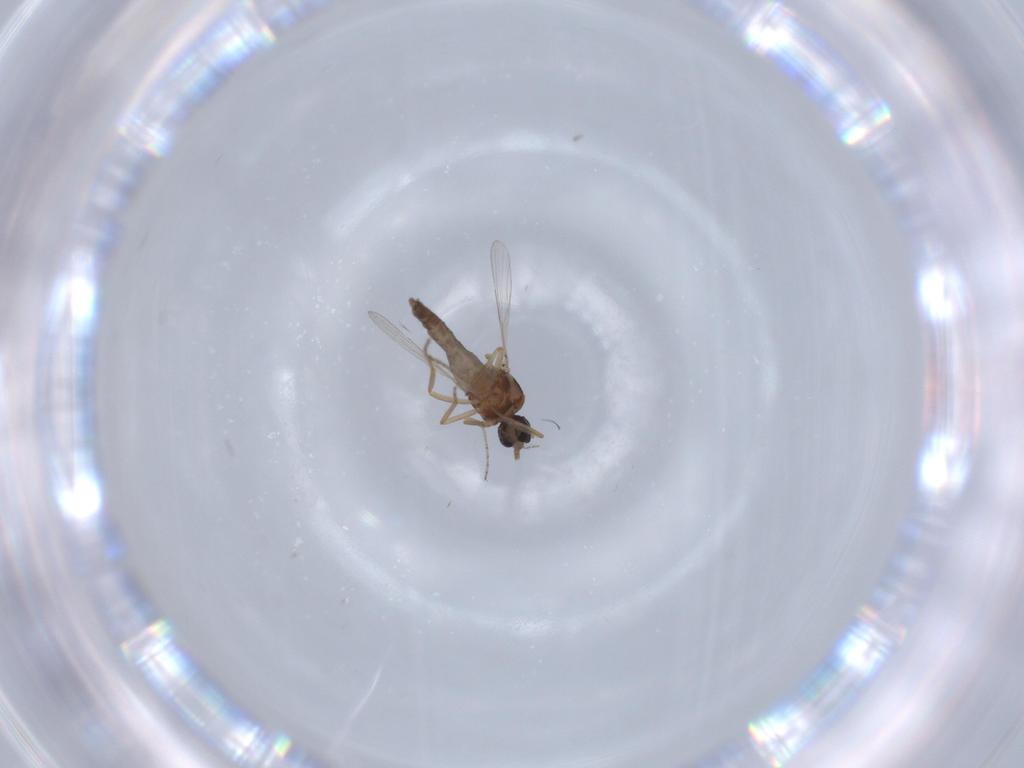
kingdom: Animalia
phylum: Arthropoda
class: Insecta
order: Diptera
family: Ceratopogonidae
